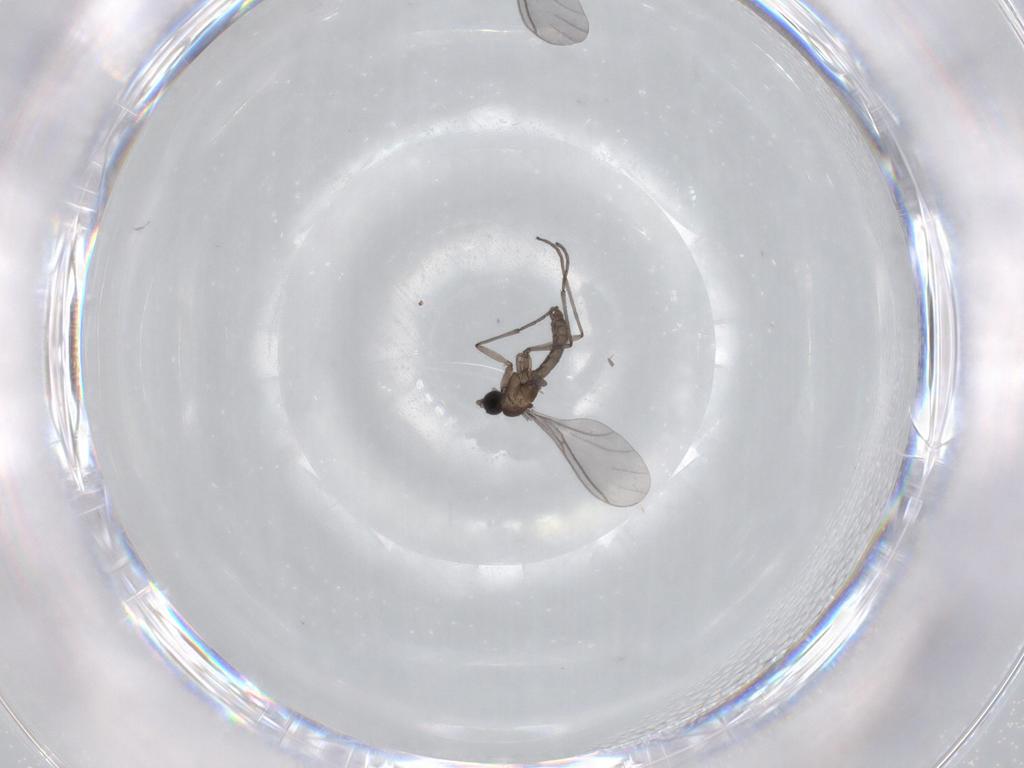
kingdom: Animalia
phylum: Arthropoda
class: Insecta
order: Diptera
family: Sciaridae
